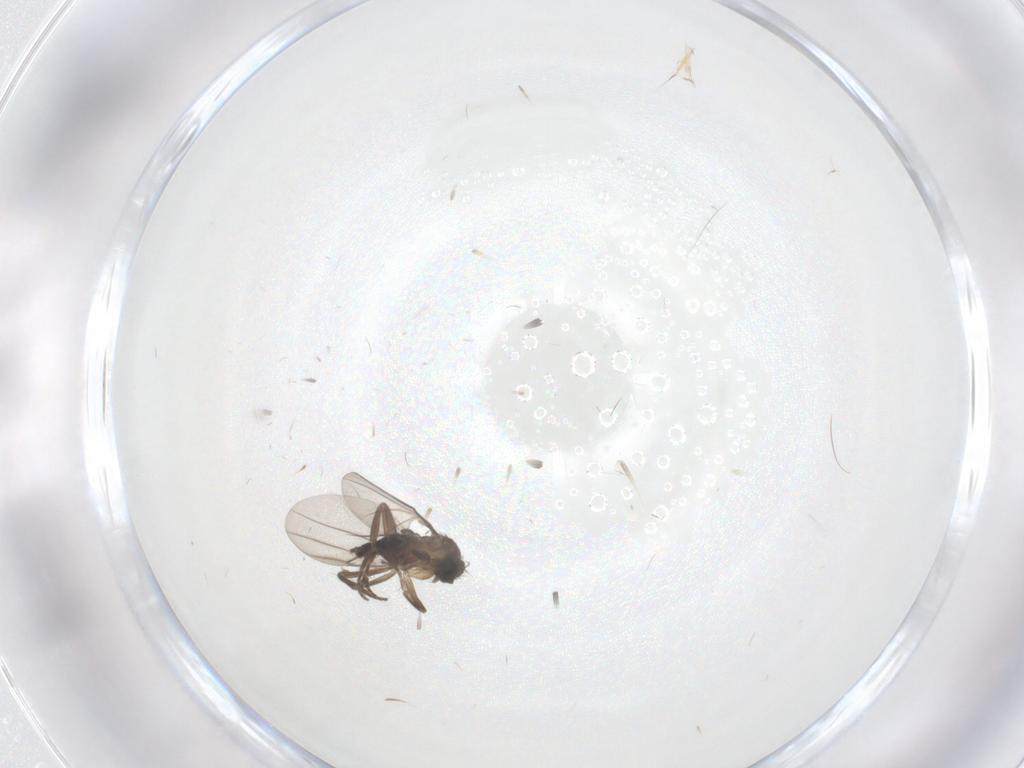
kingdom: Animalia
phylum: Arthropoda
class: Insecta
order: Diptera
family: Phoridae
